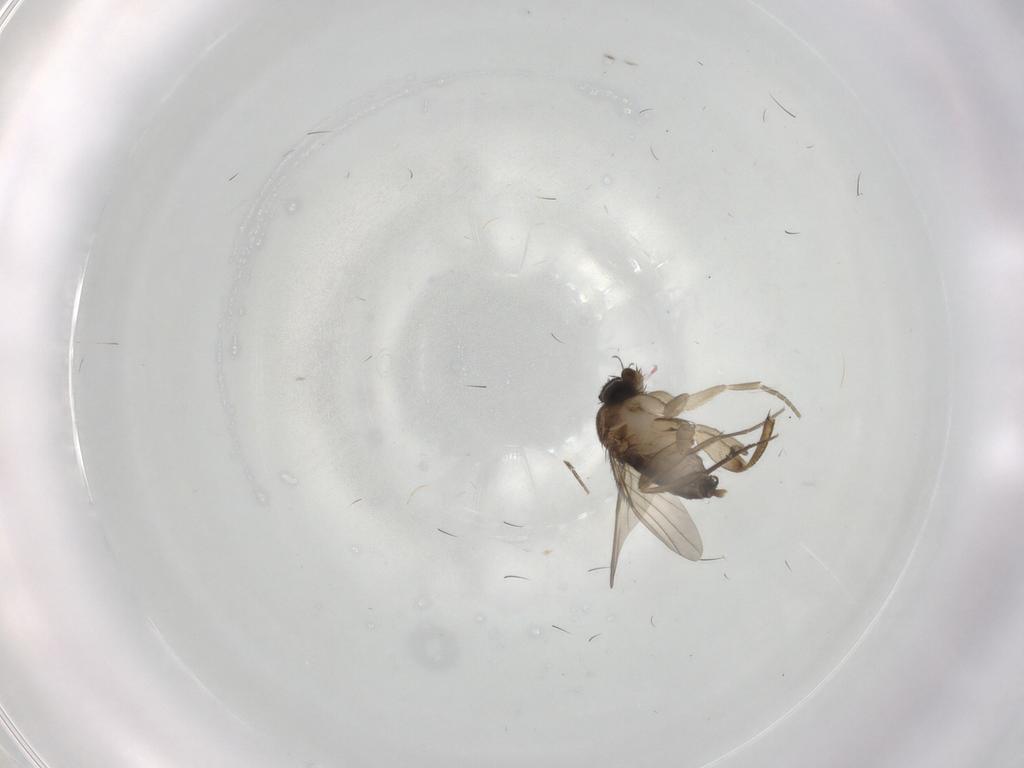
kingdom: Animalia
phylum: Arthropoda
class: Insecta
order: Diptera
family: Phoridae
